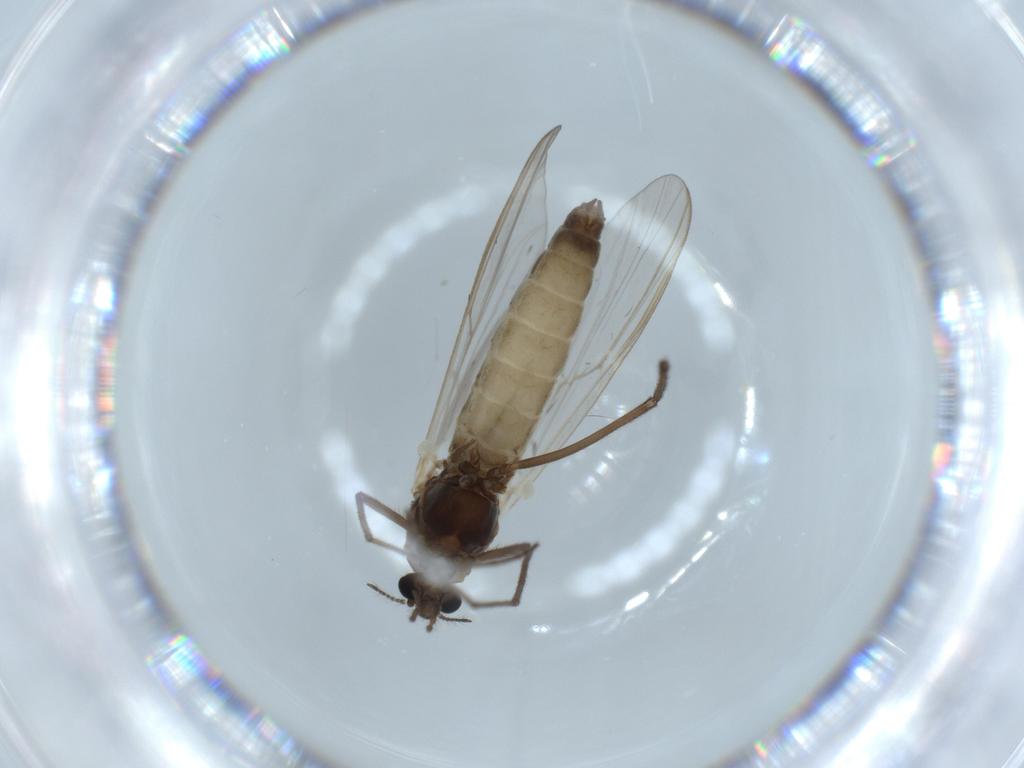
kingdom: Animalia
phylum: Arthropoda
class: Insecta
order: Diptera
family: Chironomidae
